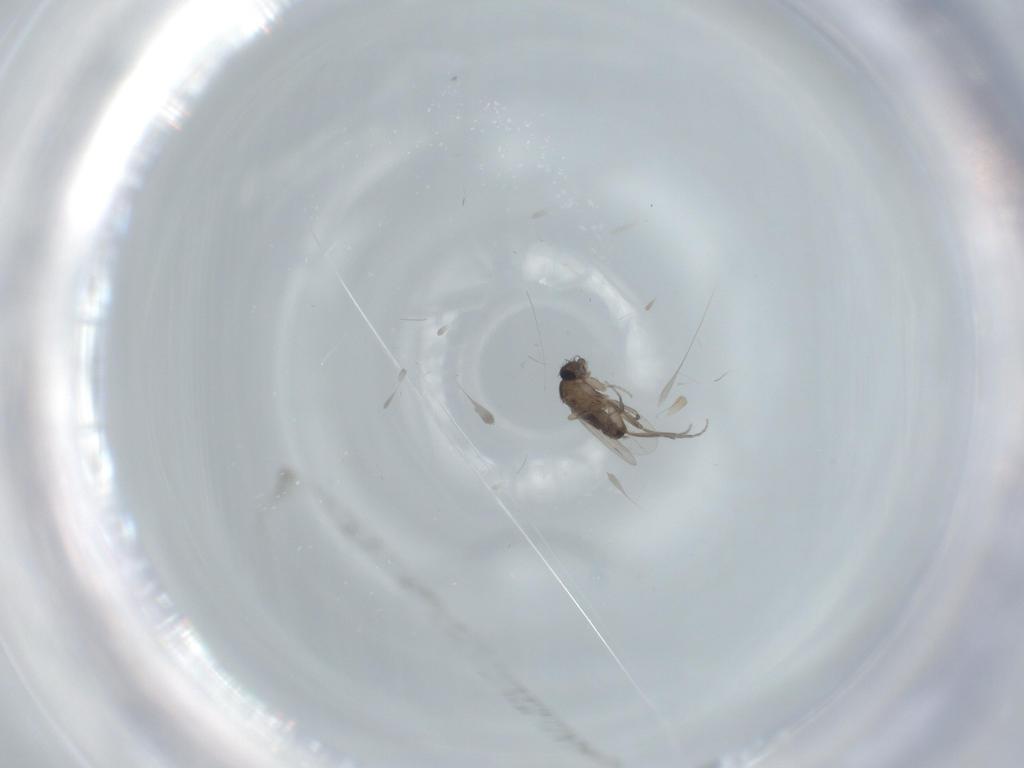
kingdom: Animalia
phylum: Arthropoda
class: Insecta
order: Diptera
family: Phoridae
